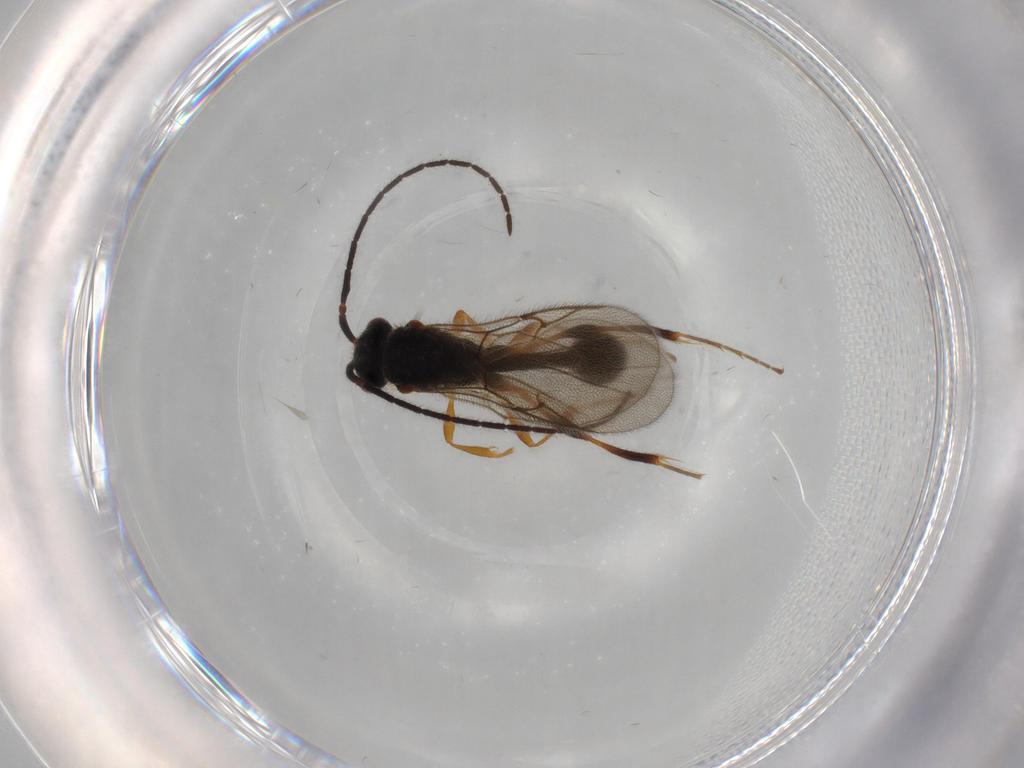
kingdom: Animalia
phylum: Arthropoda
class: Insecta
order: Hymenoptera
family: Diapriidae
